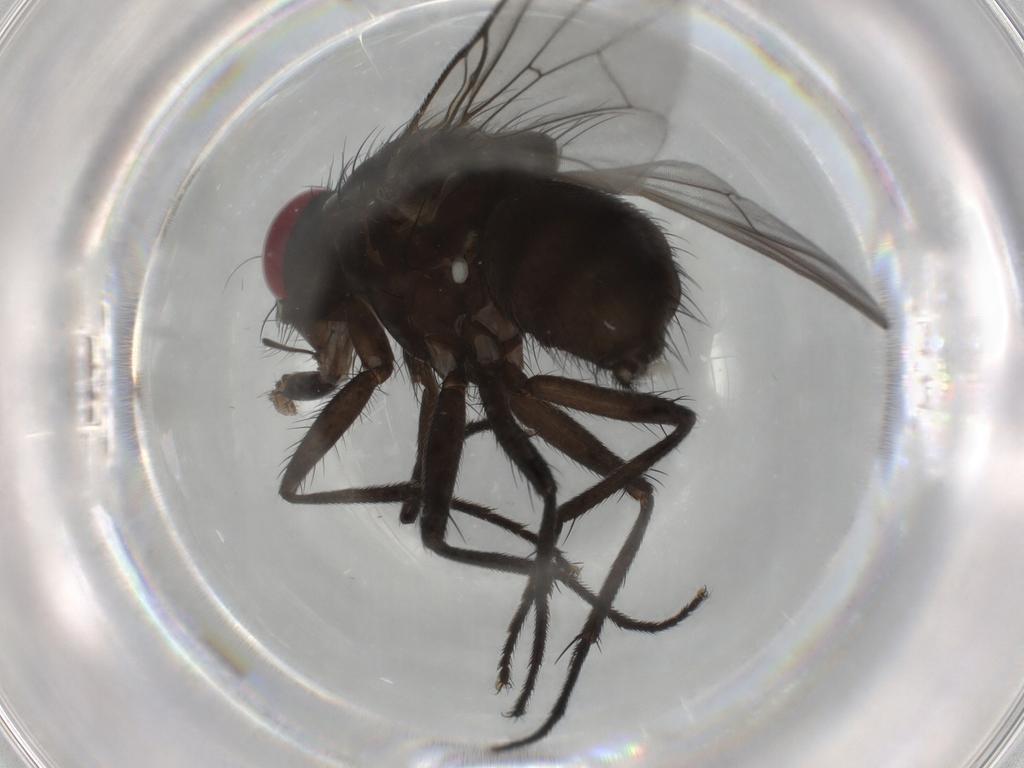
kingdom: Animalia
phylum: Arthropoda
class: Insecta
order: Diptera
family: Muscidae
